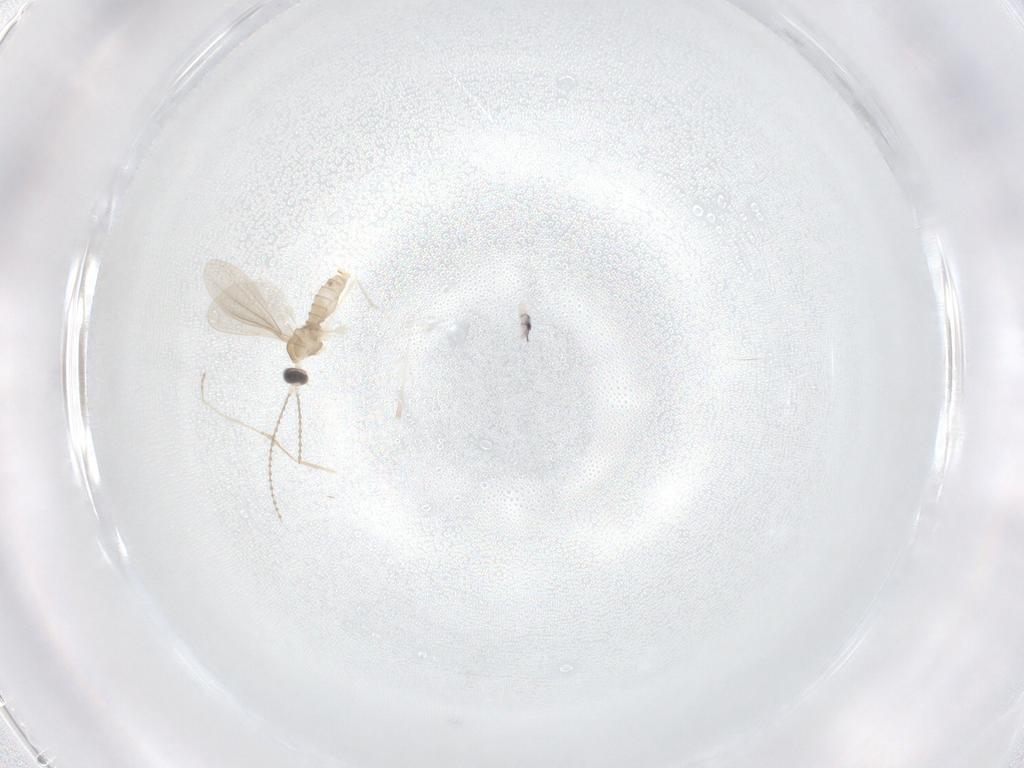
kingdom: Animalia
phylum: Arthropoda
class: Insecta
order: Diptera
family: Cecidomyiidae
